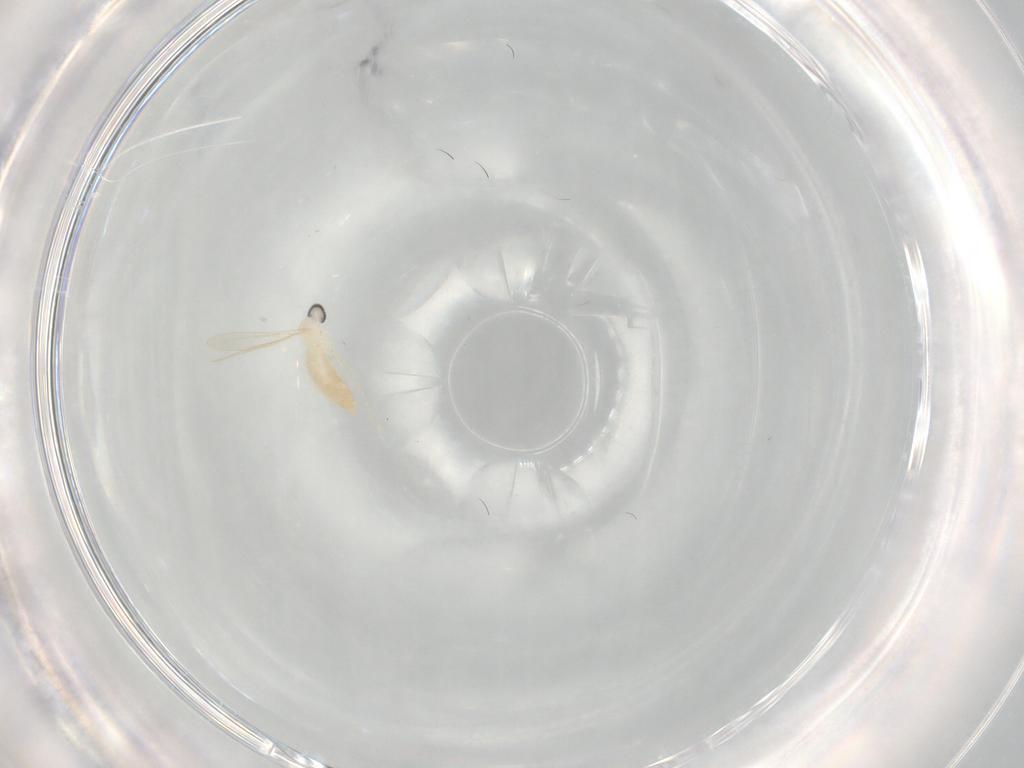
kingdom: Animalia
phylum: Arthropoda
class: Insecta
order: Diptera
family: Cecidomyiidae
